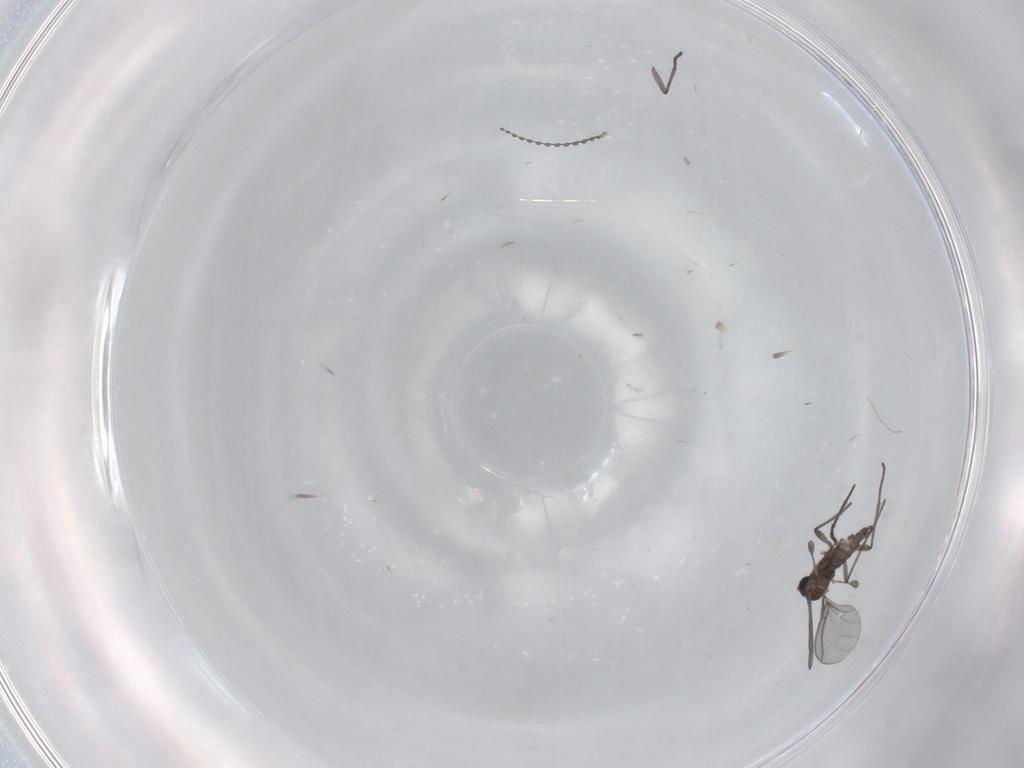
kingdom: Animalia
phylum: Arthropoda
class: Insecta
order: Diptera
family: Sciaridae
